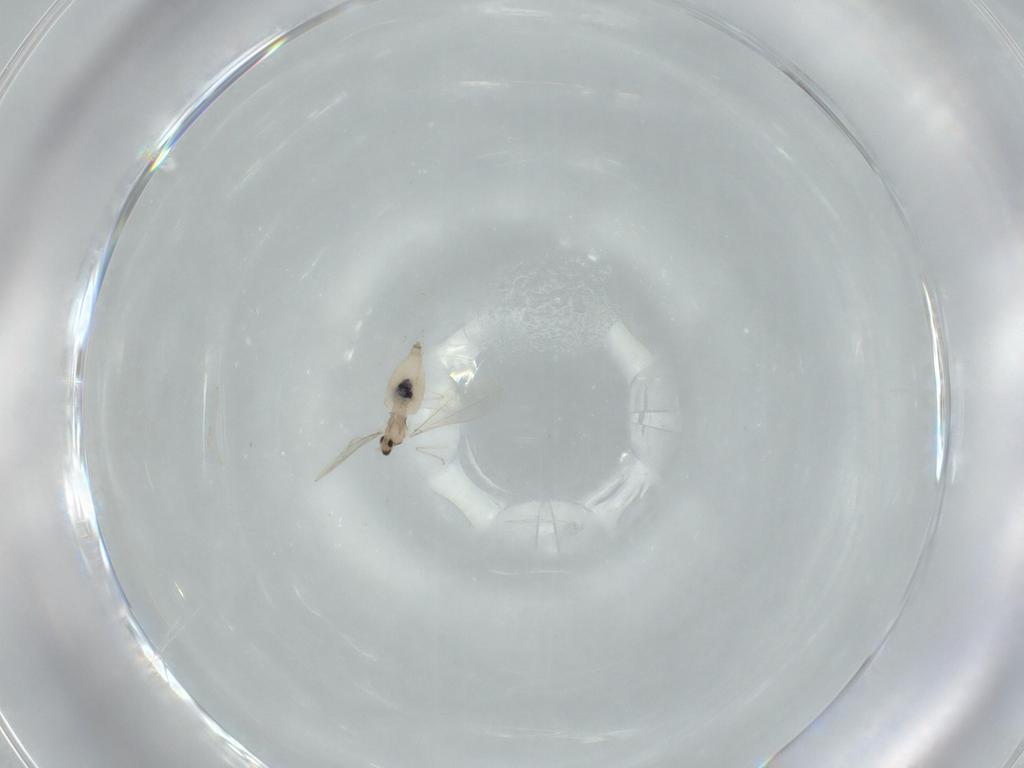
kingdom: Animalia
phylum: Arthropoda
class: Insecta
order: Diptera
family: Cecidomyiidae
